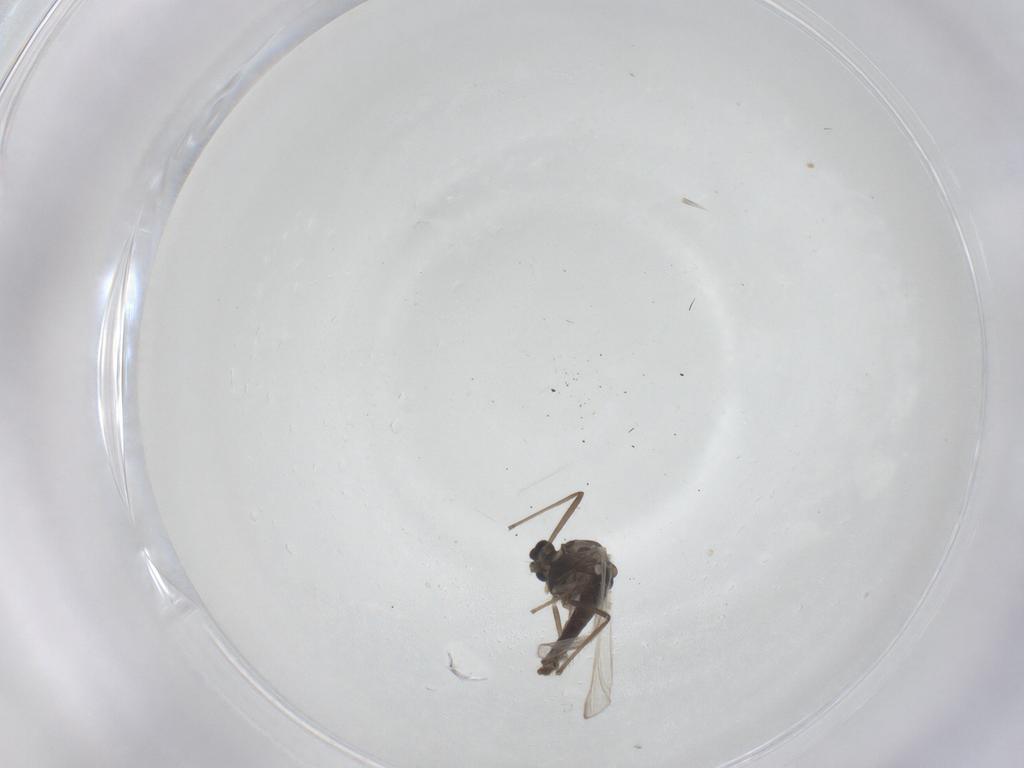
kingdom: Animalia
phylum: Arthropoda
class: Insecta
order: Diptera
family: Chironomidae
